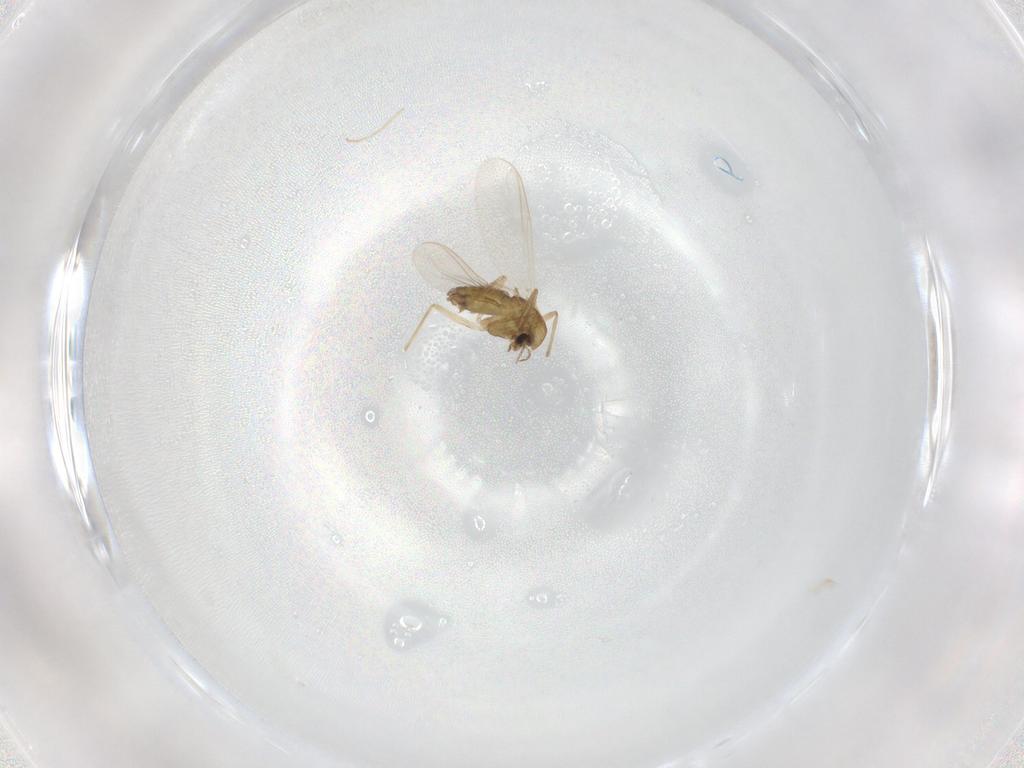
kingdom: Animalia
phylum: Arthropoda
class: Insecta
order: Diptera
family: Chironomidae
